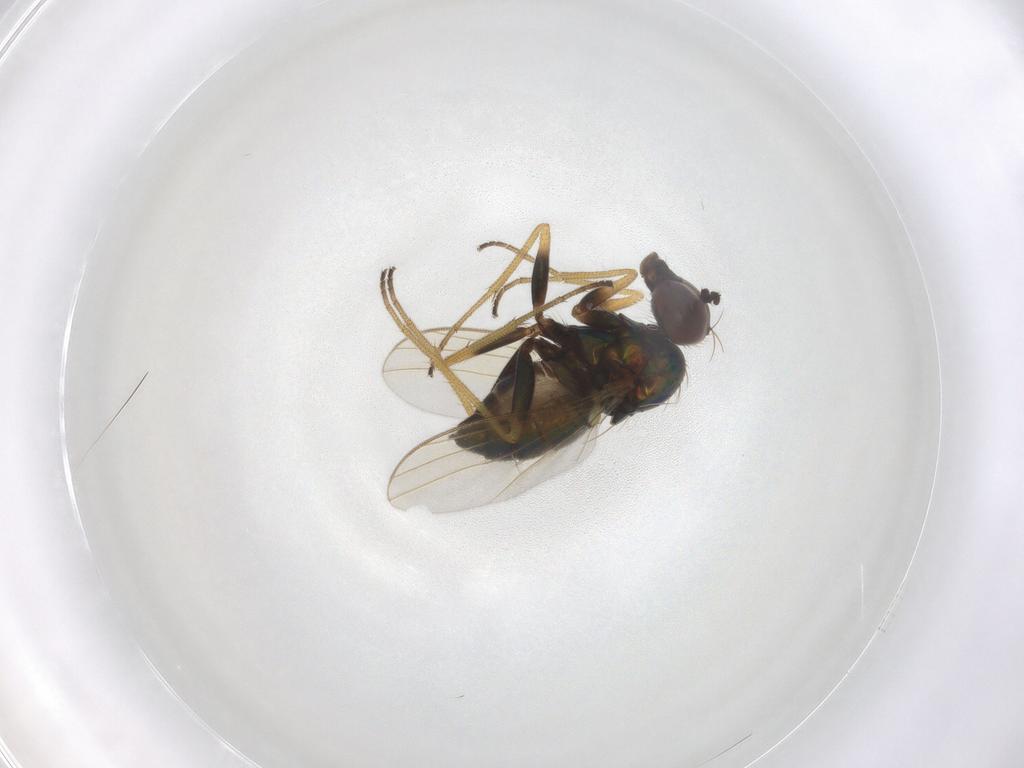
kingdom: Animalia
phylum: Arthropoda
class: Insecta
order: Diptera
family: Dolichopodidae
